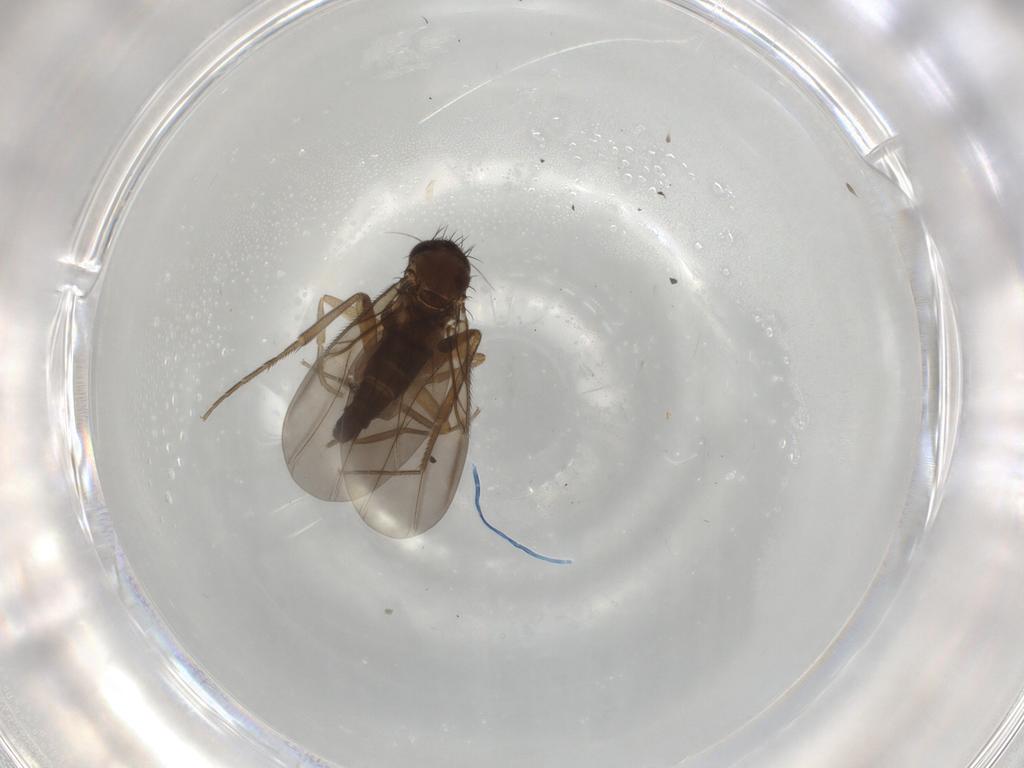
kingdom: Animalia
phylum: Arthropoda
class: Insecta
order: Diptera
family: Phoridae
